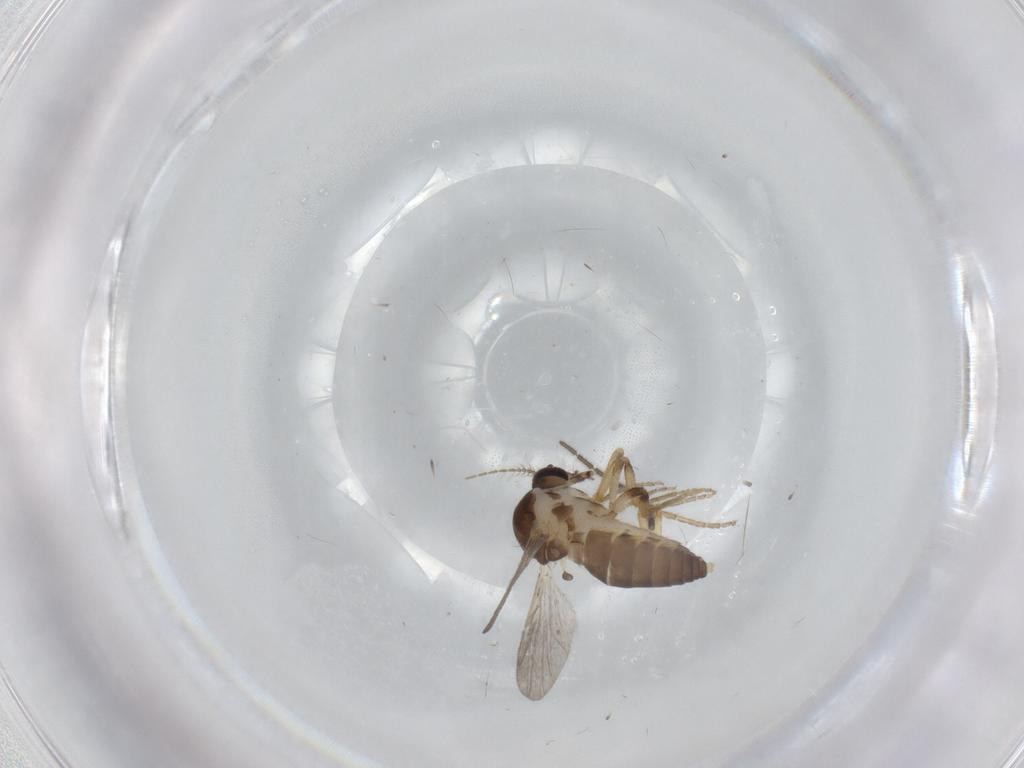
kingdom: Animalia
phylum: Arthropoda
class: Insecta
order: Diptera
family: Ceratopogonidae
